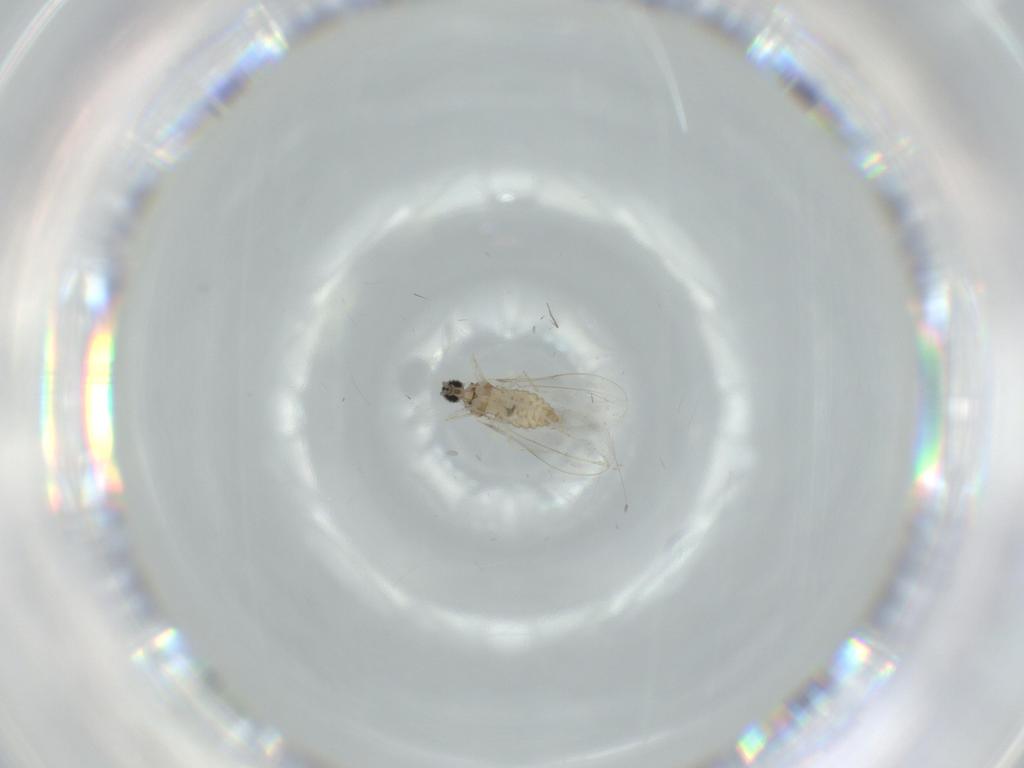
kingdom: Animalia
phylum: Arthropoda
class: Insecta
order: Diptera
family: Cecidomyiidae
